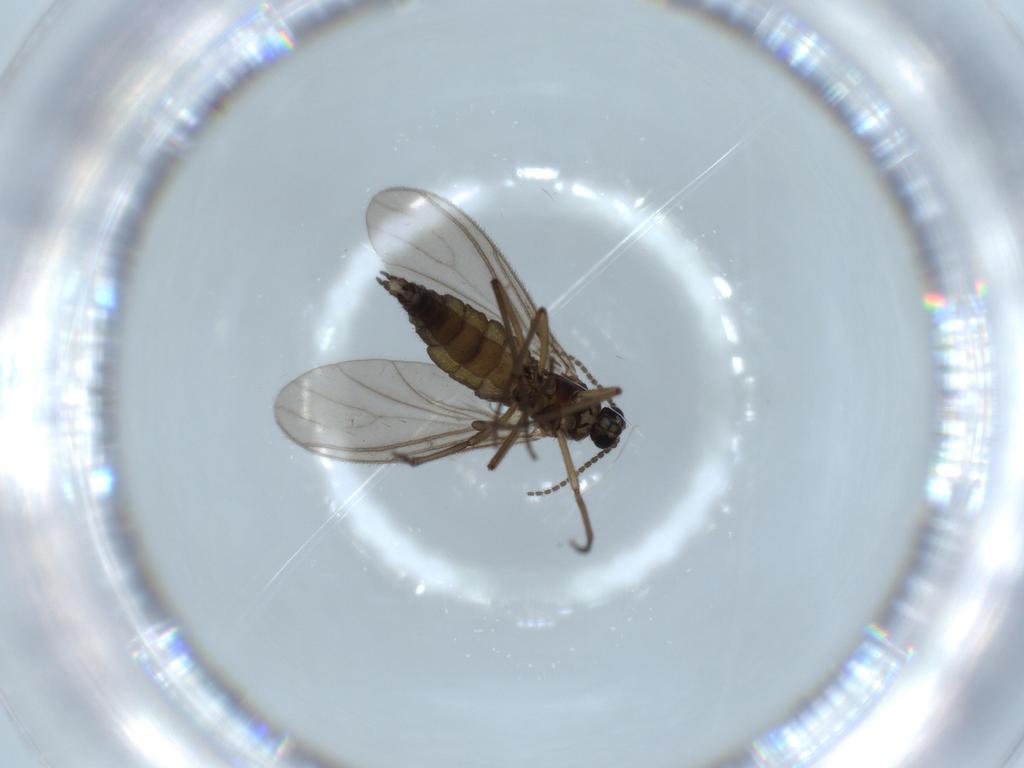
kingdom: Animalia
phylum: Arthropoda
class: Insecta
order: Diptera
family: Sciaridae
